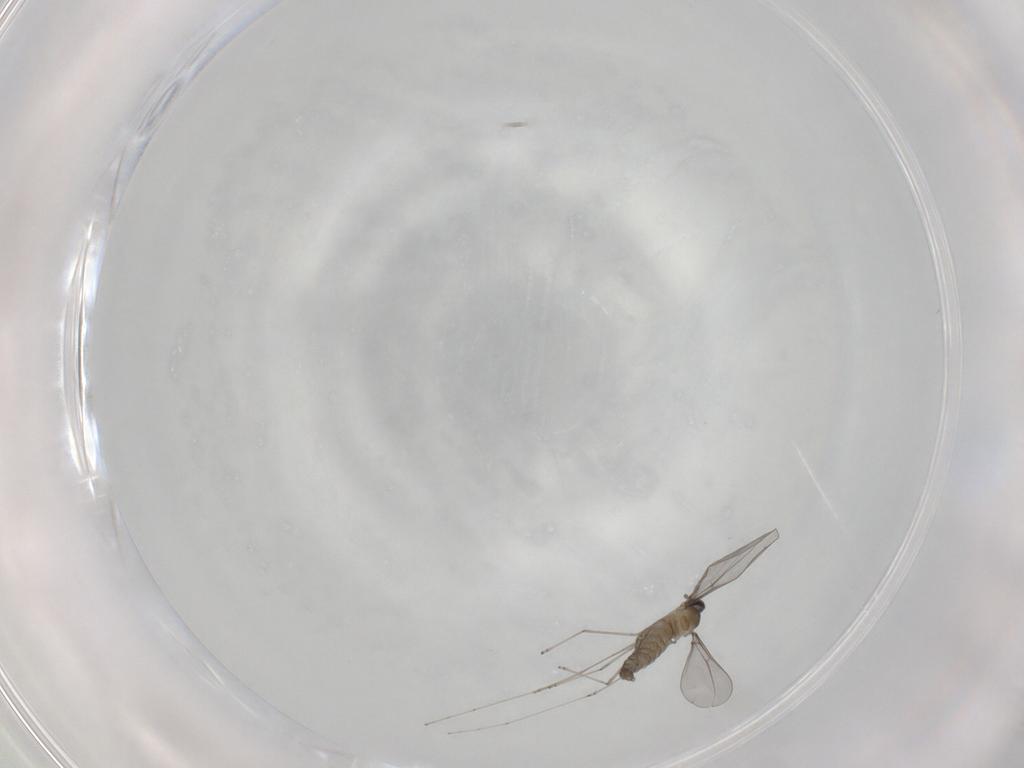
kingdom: Animalia
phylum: Arthropoda
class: Insecta
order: Diptera
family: Cecidomyiidae
